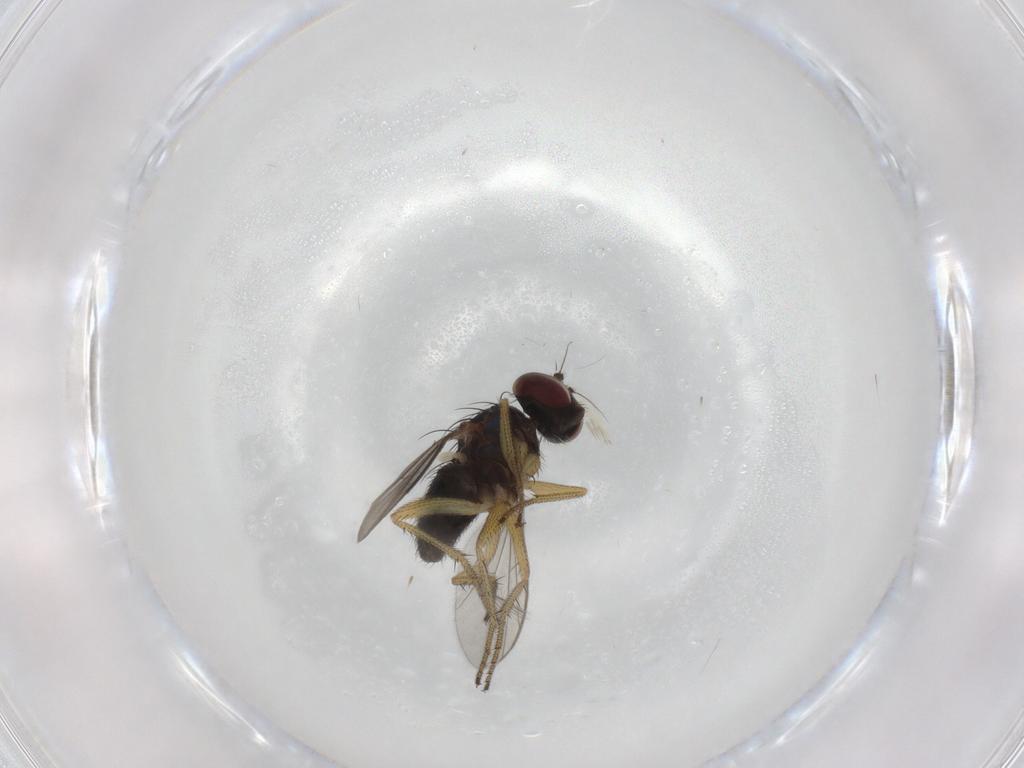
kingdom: Animalia
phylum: Arthropoda
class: Insecta
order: Diptera
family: Dolichopodidae
